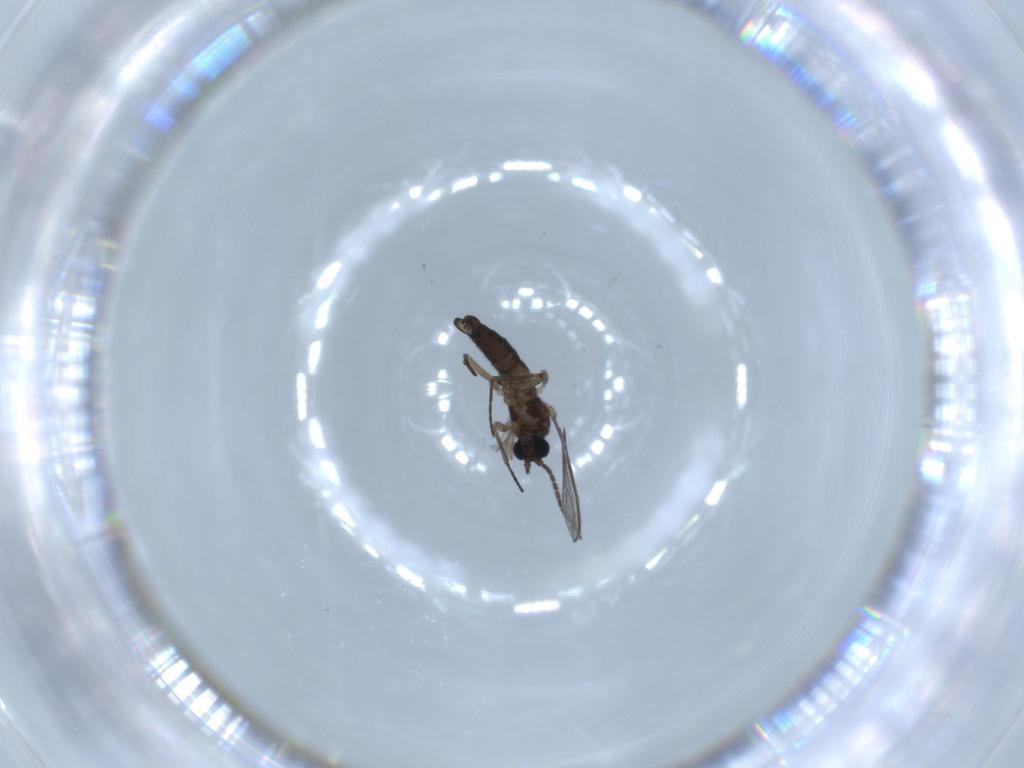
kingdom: Animalia
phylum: Arthropoda
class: Insecta
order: Diptera
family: Sciaridae
